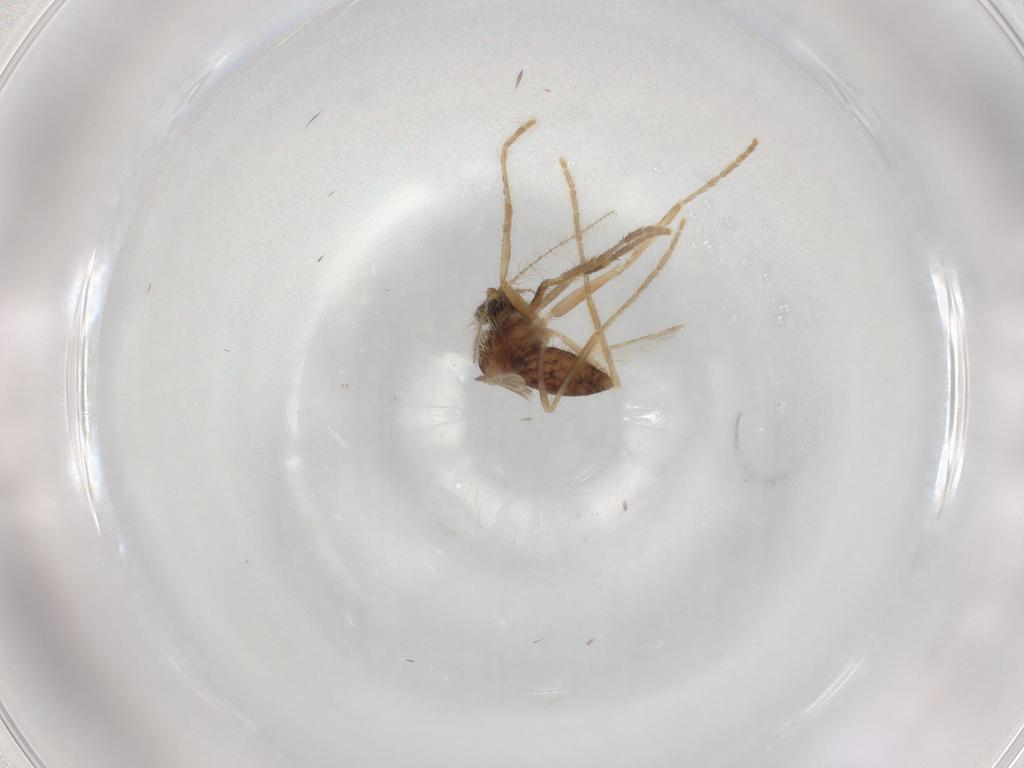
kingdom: Animalia
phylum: Arthropoda
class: Insecta
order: Diptera
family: Corethrellidae
